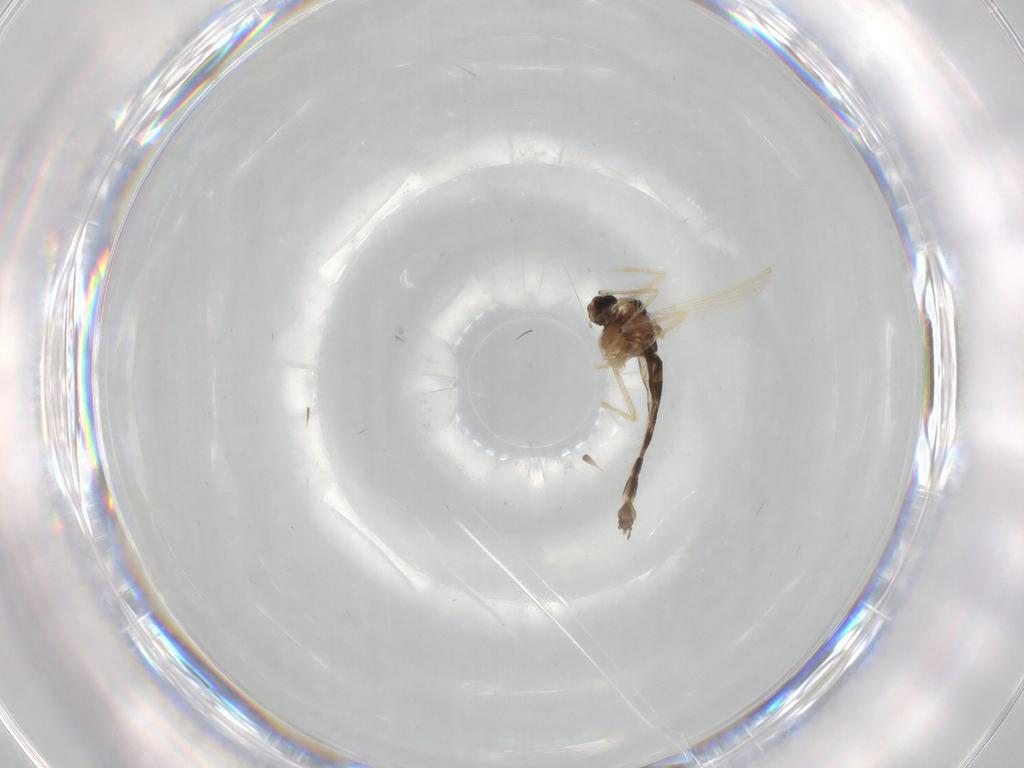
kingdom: Animalia
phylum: Arthropoda
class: Insecta
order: Diptera
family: Chironomidae
